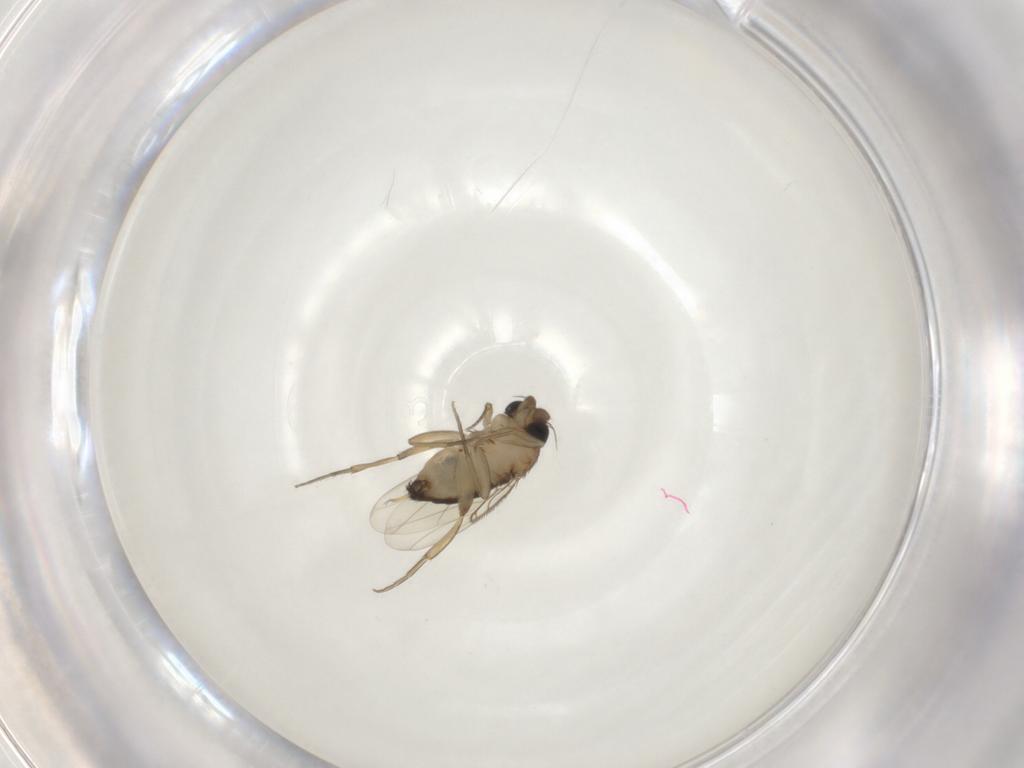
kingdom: Animalia
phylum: Arthropoda
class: Insecta
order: Diptera
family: Phoridae
